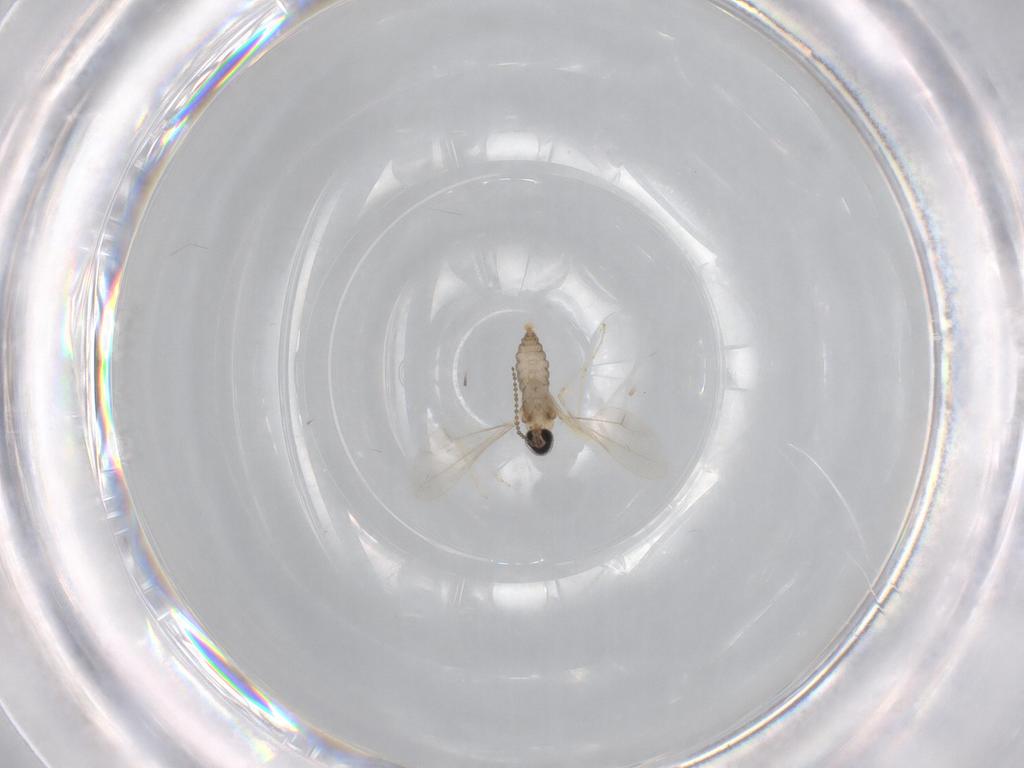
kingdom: Animalia
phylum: Arthropoda
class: Insecta
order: Diptera
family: Cecidomyiidae
